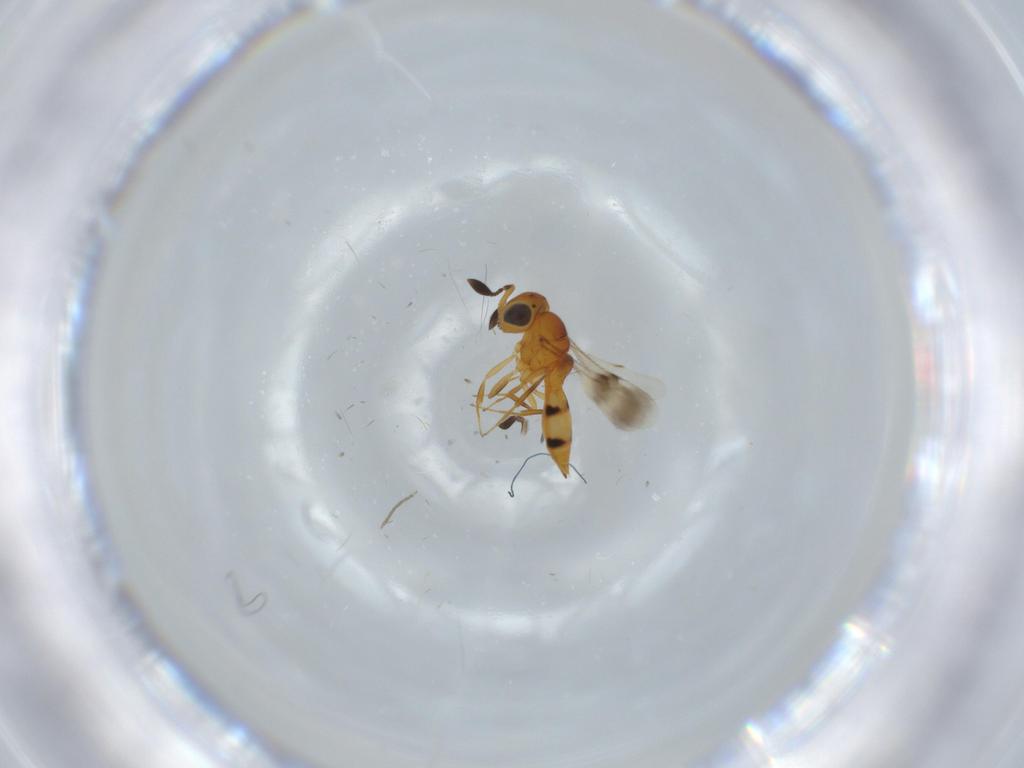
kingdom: Animalia
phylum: Arthropoda
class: Insecta
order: Hymenoptera
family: Scelionidae
